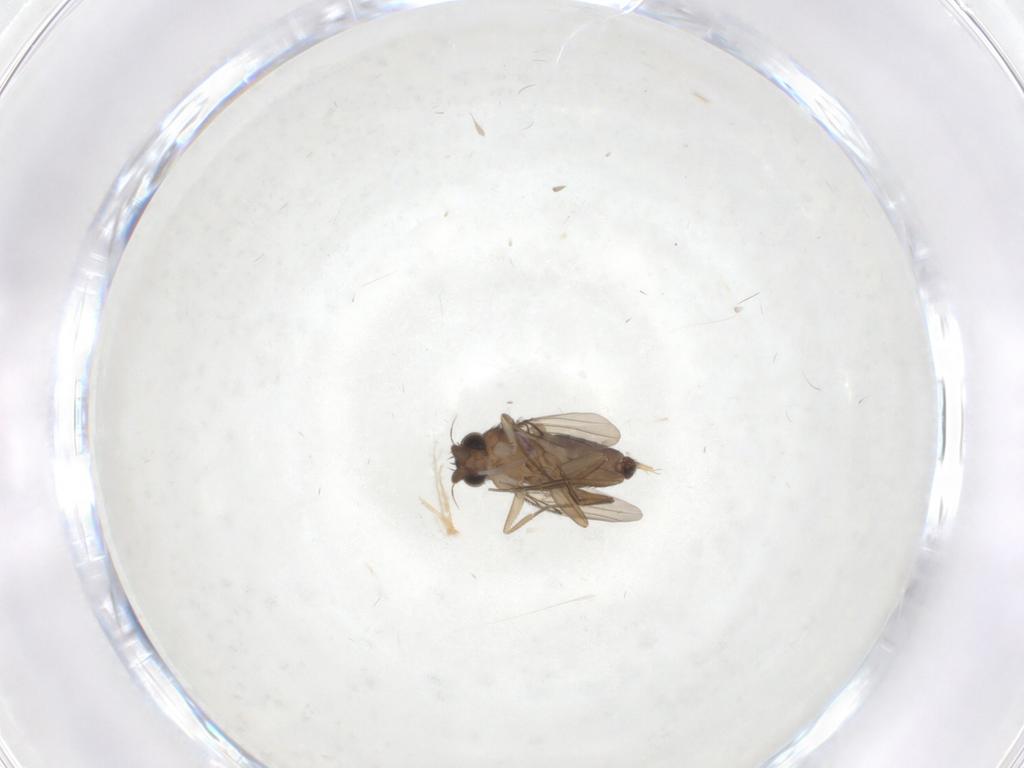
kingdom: Animalia
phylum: Arthropoda
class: Insecta
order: Diptera
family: Phoridae
